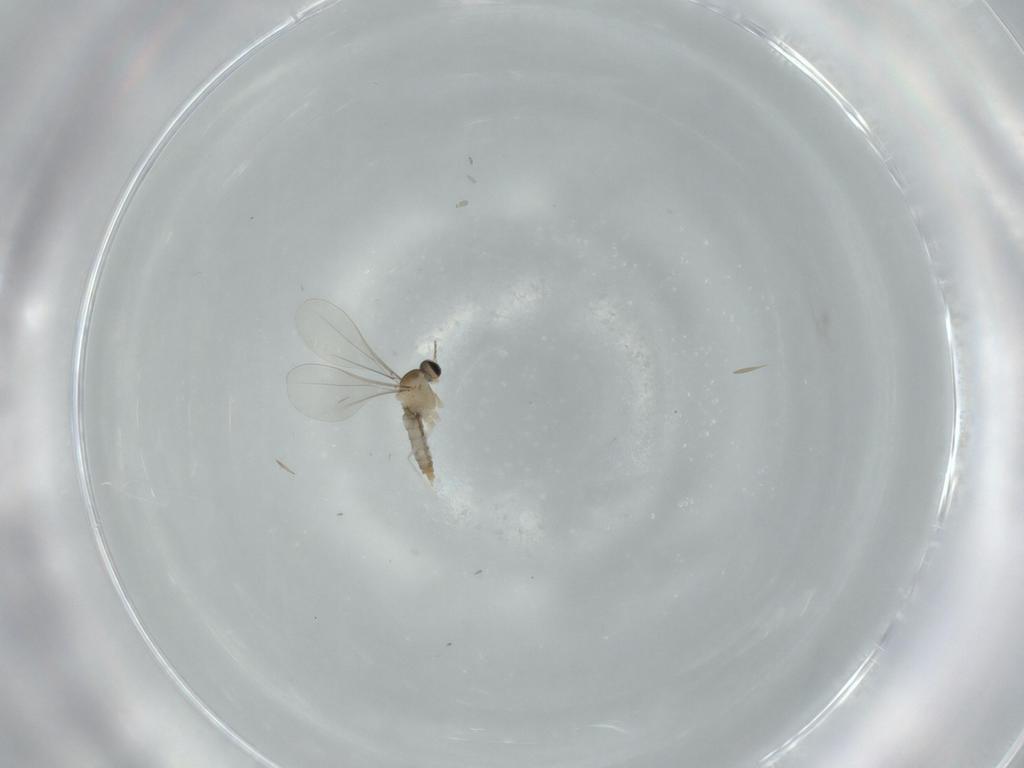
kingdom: Animalia
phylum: Arthropoda
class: Insecta
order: Diptera
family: Cecidomyiidae
